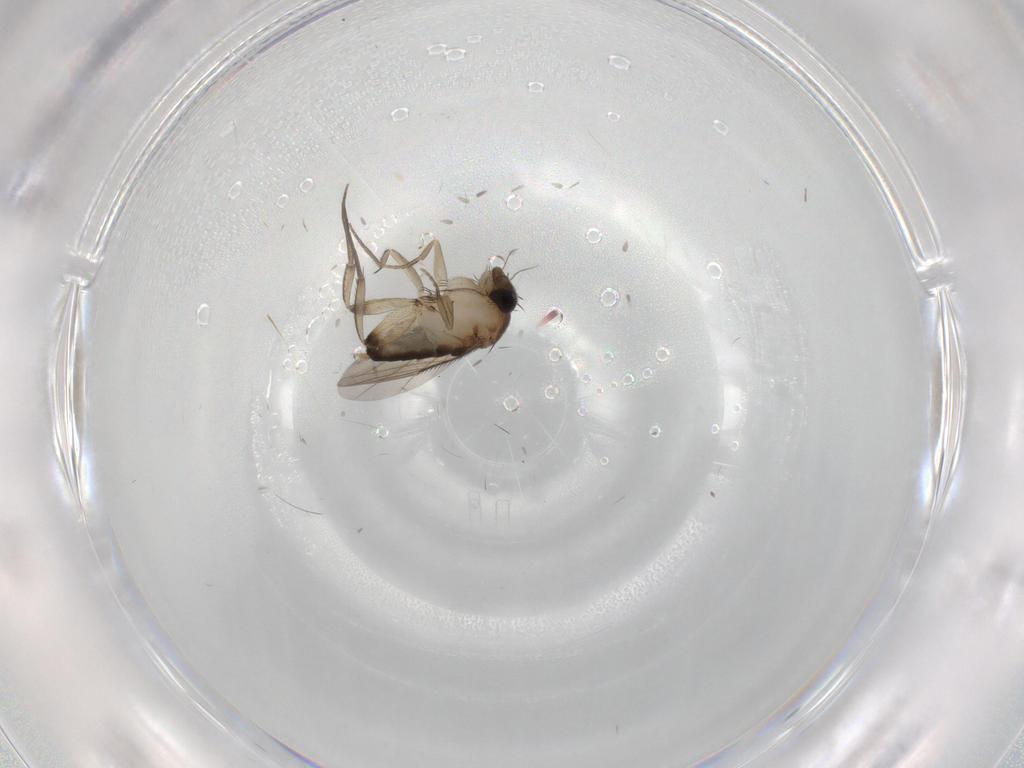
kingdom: Animalia
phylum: Arthropoda
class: Insecta
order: Diptera
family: Phoridae
